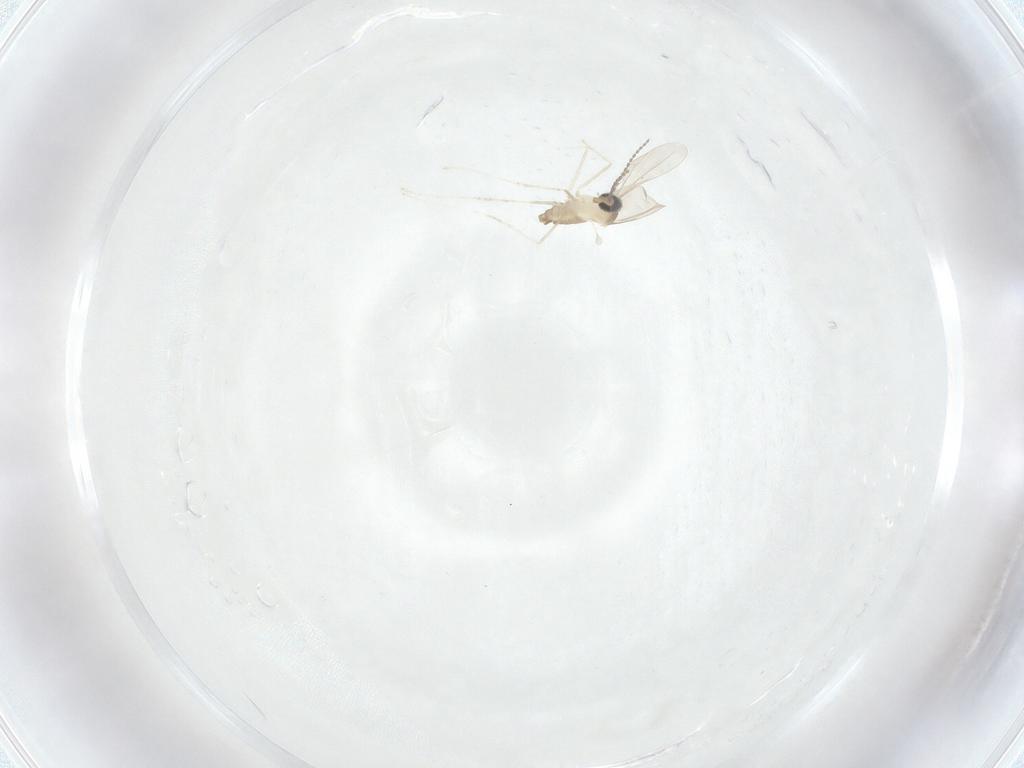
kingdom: Animalia
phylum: Arthropoda
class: Insecta
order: Diptera
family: Cecidomyiidae
